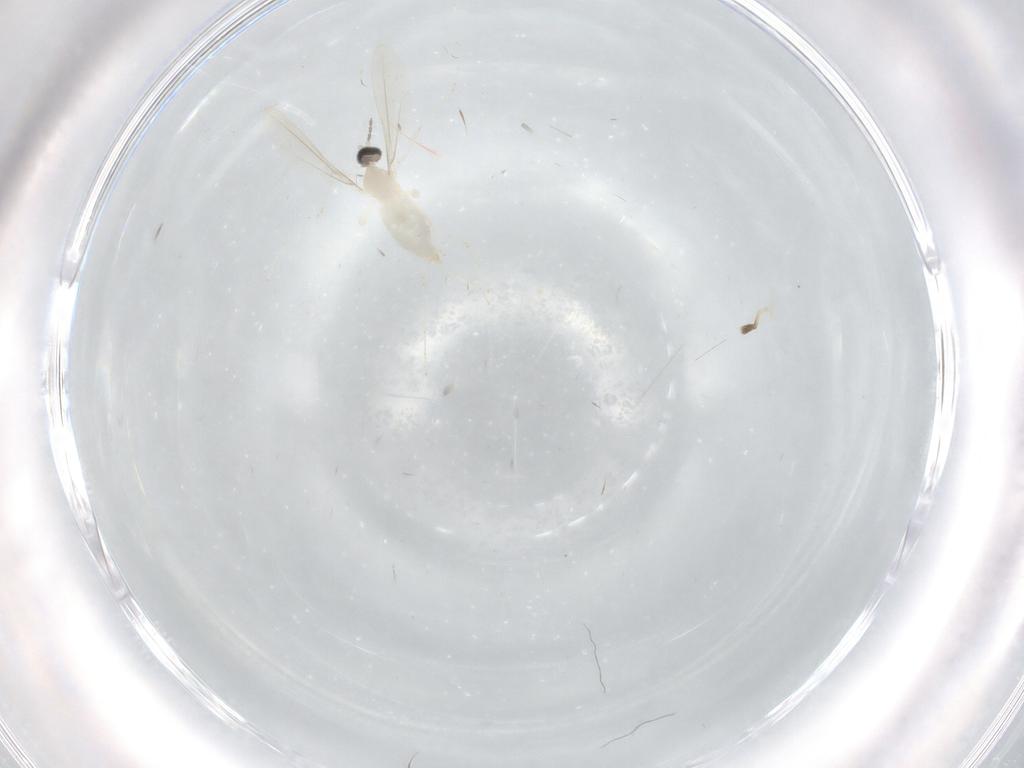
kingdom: Animalia
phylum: Arthropoda
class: Insecta
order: Diptera
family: Cecidomyiidae
